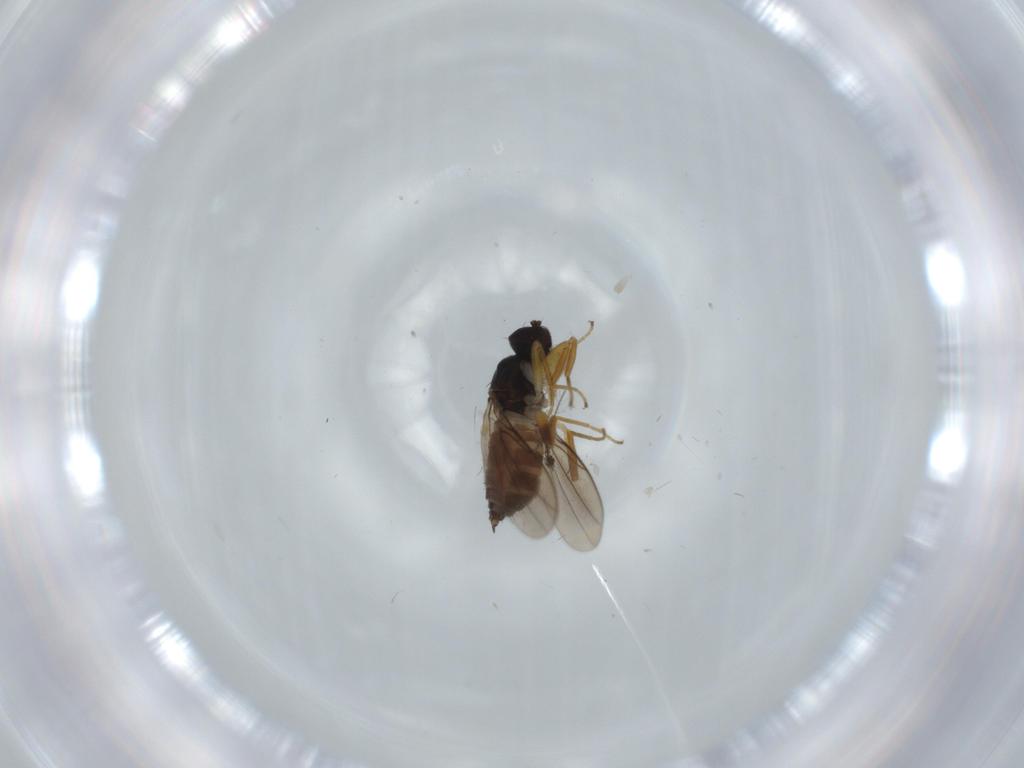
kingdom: Animalia
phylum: Arthropoda
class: Insecta
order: Diptera
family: Hybotidae
